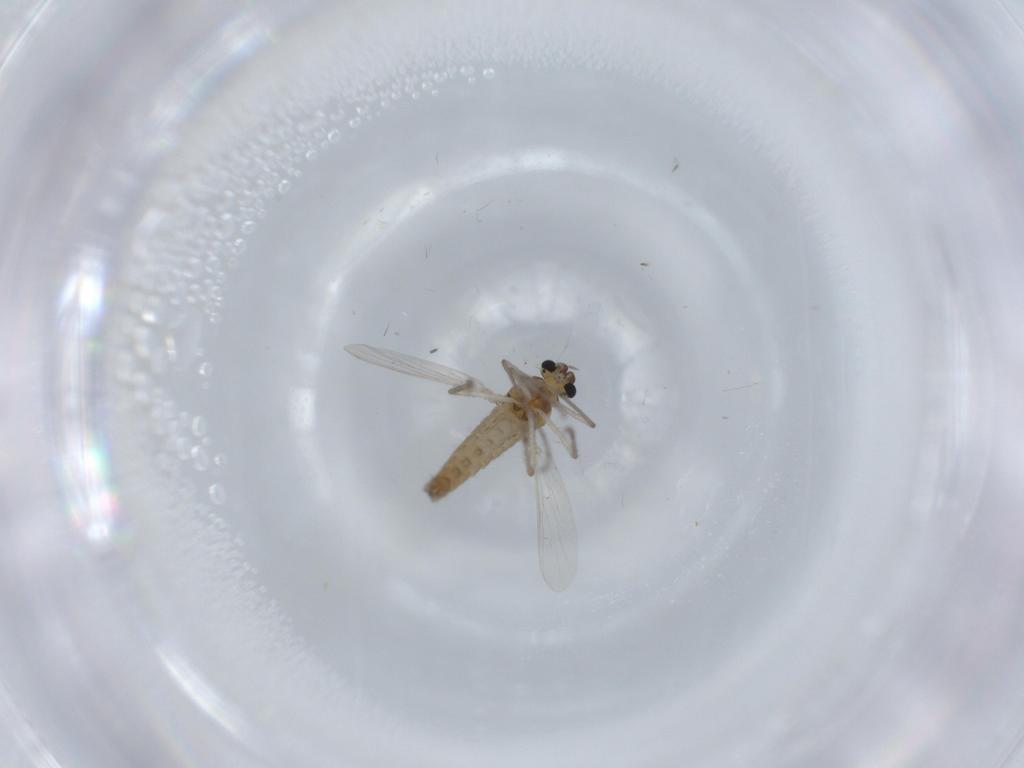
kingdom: Animalia
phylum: Arthropoda
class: Insecta
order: Diptera
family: Chironomidae
